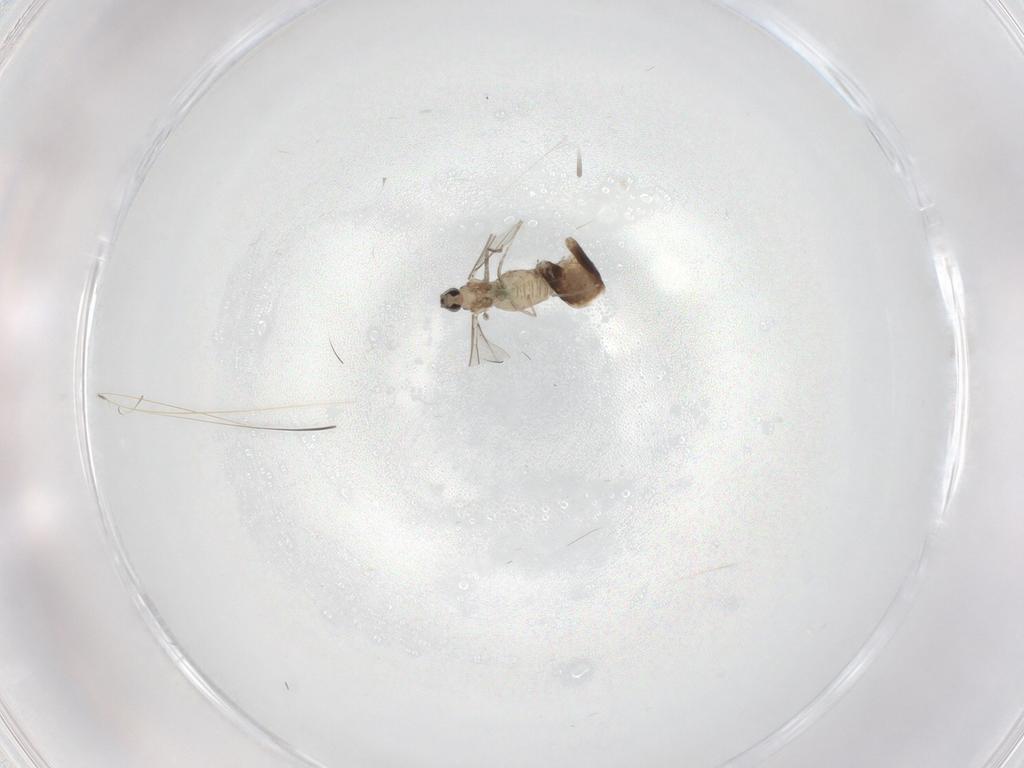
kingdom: Animalia
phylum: Arthropoda
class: Insecta
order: Diptera
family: Cecidomyiidae
